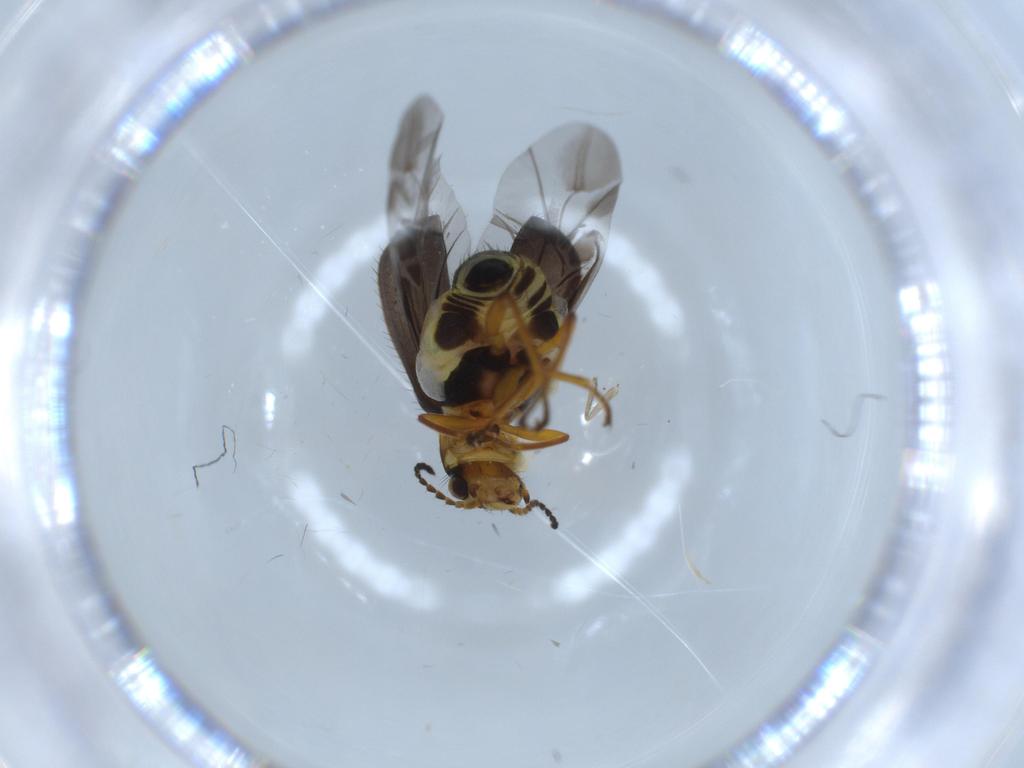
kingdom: Animalia
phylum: Arthropoda
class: Insecta
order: Coleoptera
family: Melyridae
